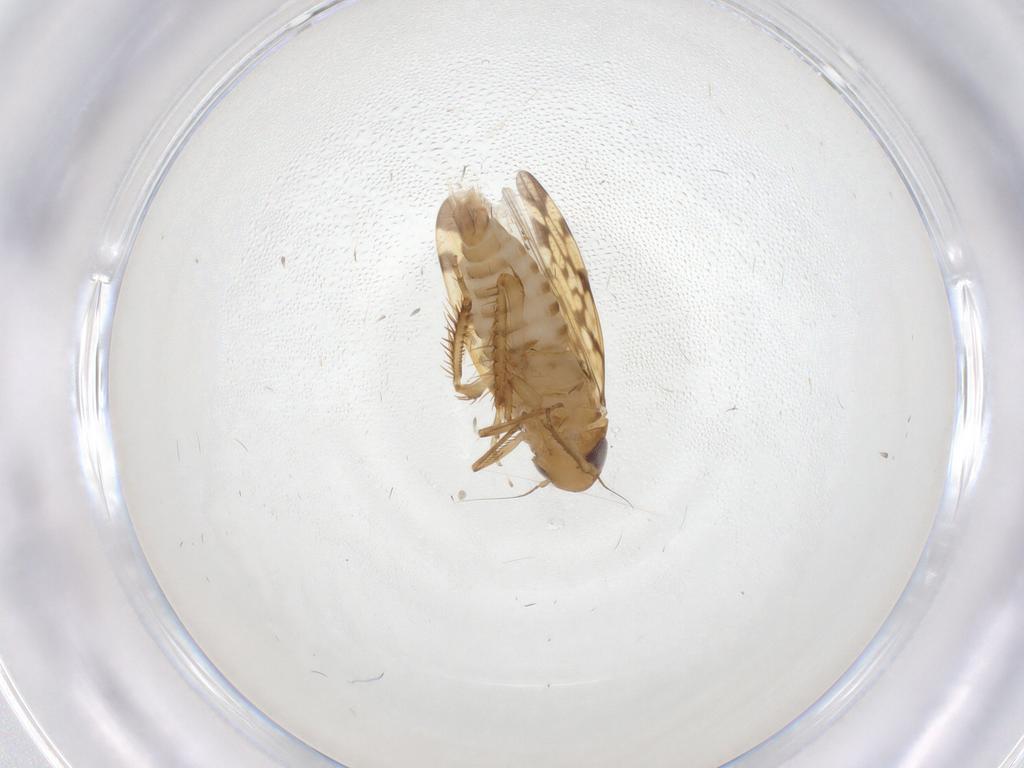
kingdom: Animalia
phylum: Arthropoda
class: Insecta
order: Hemiptera
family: Cicadellidae
